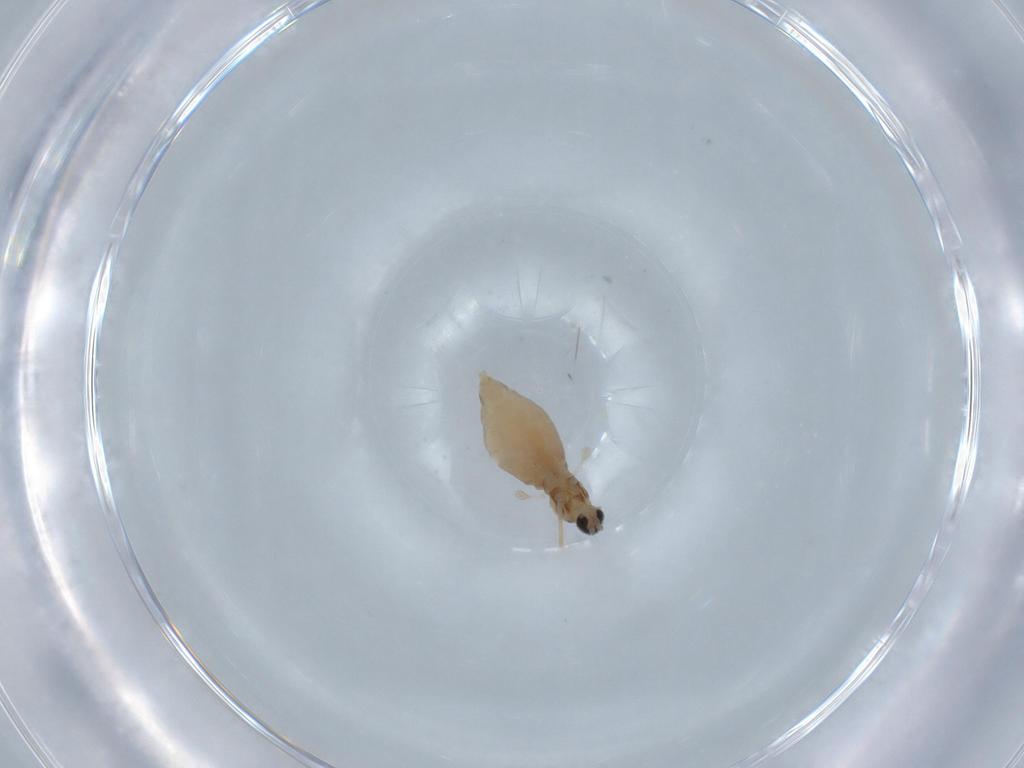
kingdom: Animalia
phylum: Arthropoda
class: Insecta
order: Diptera
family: Cecidomyiidae
